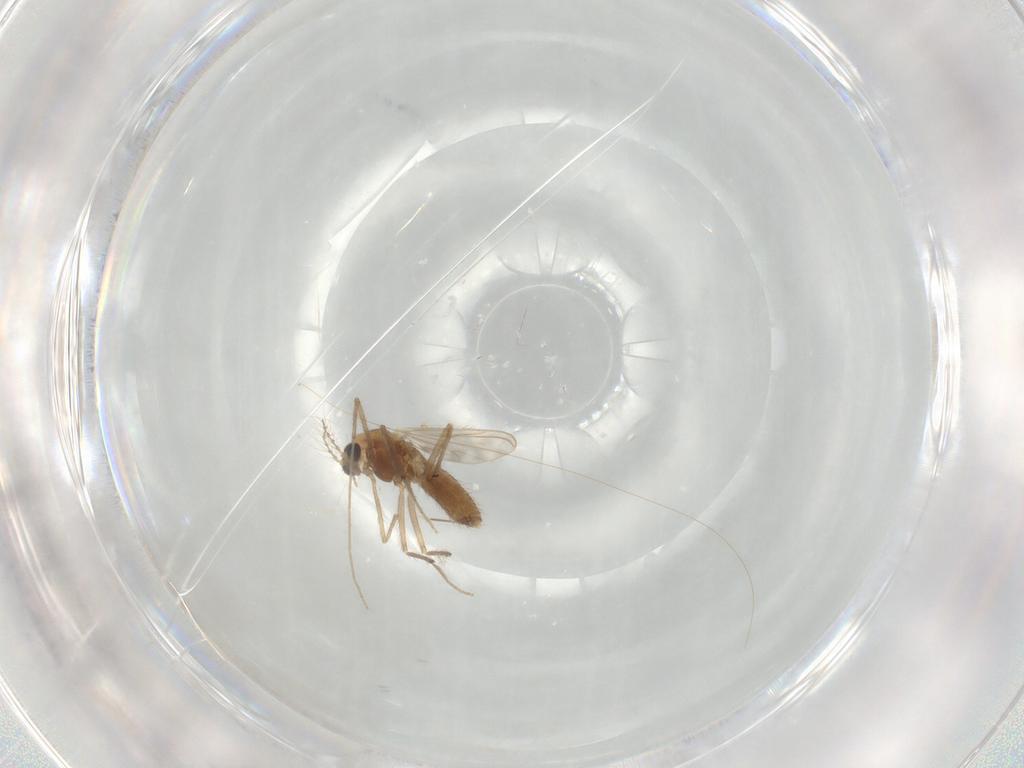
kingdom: Animalia
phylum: Arthropoda
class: Insecta
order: Diptera
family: Chironomidae
